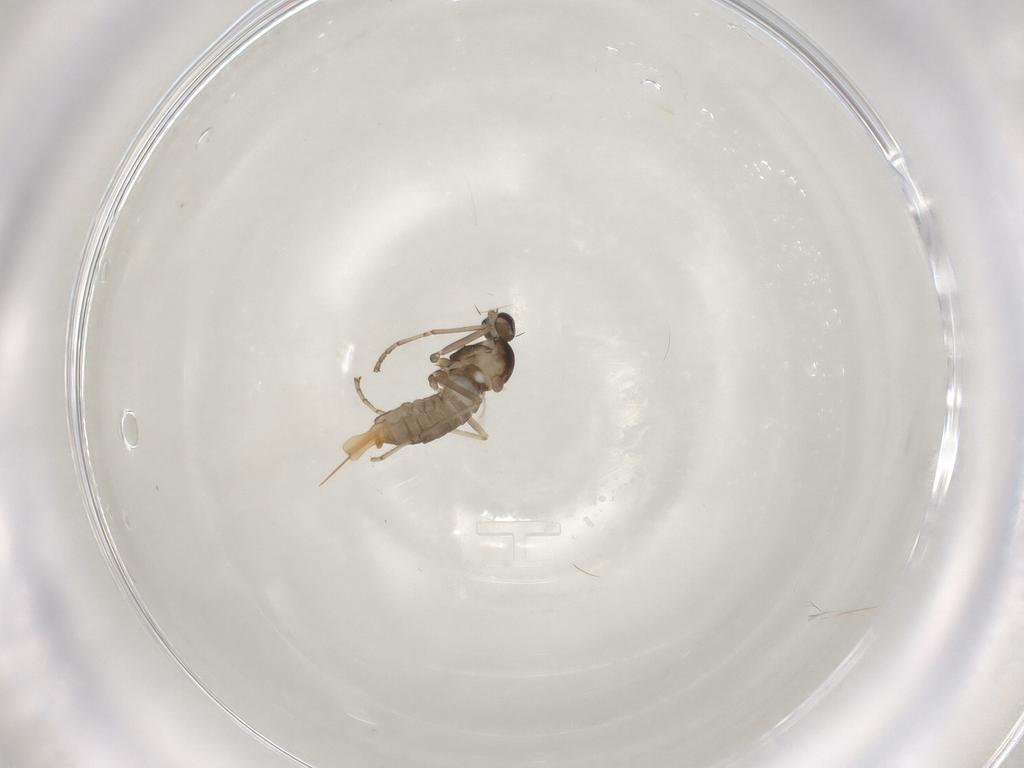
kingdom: Animalia
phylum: Arthropoda
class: Insecta
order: Diptera
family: Cecidomyiidae
